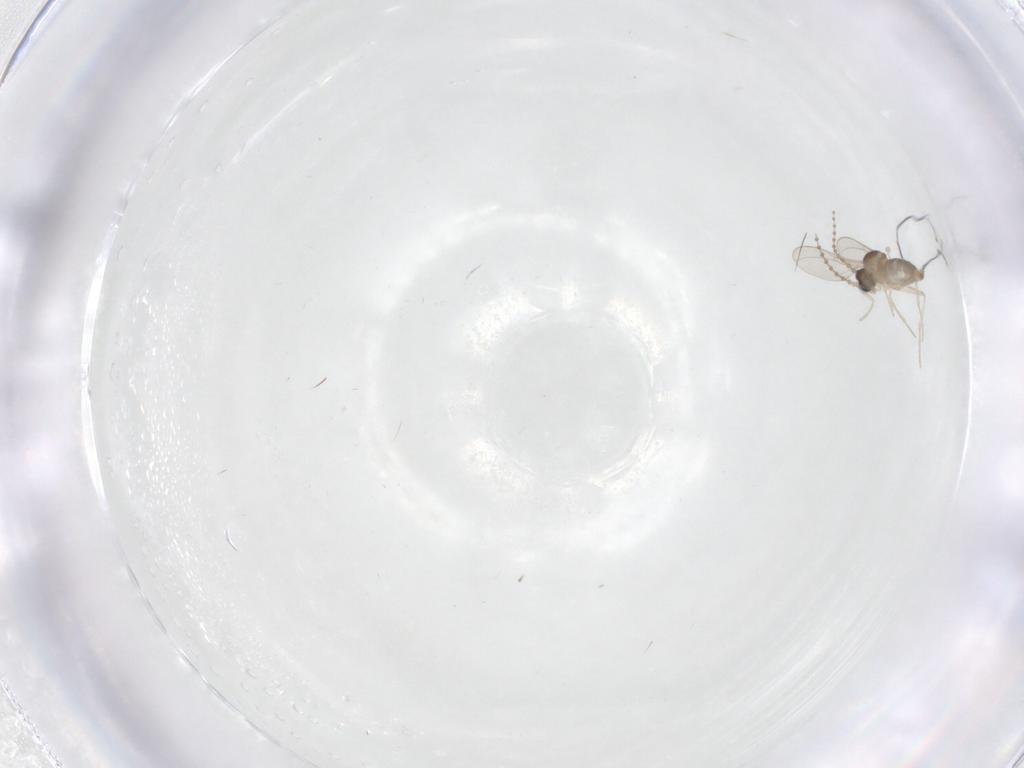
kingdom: Animalia
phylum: Arthropoda
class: Insecta
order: Diptera
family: Cecidomyiidae
